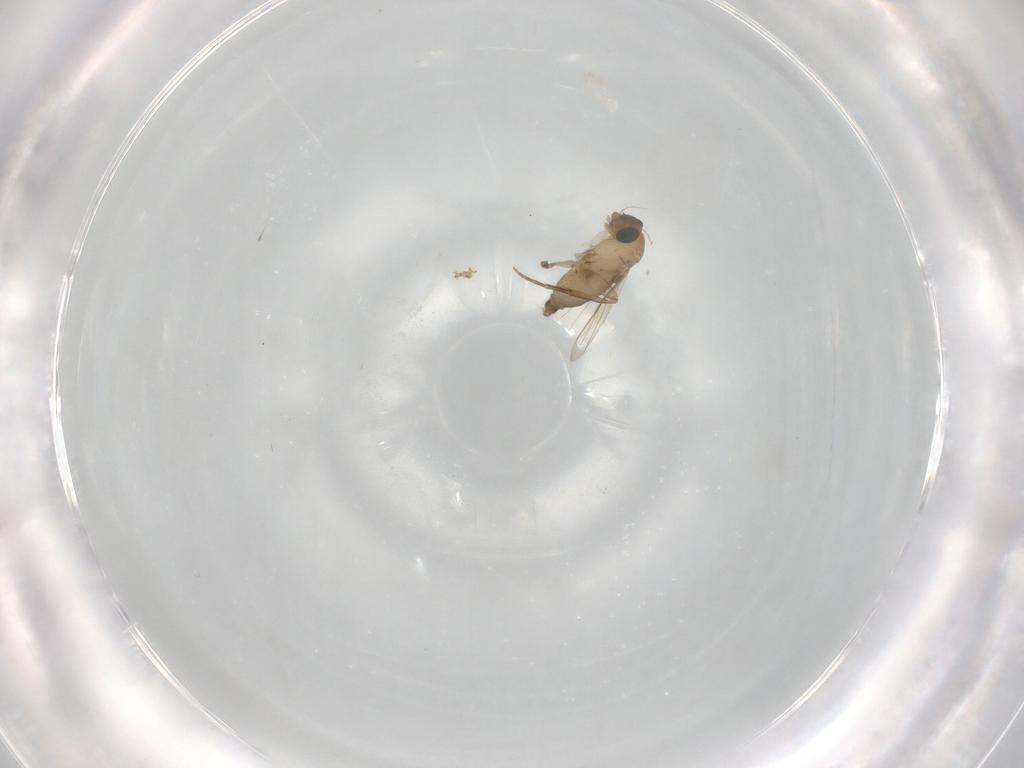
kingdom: Animalia
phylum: Arthropoda
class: Insecta
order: Diptera
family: Phoridae
